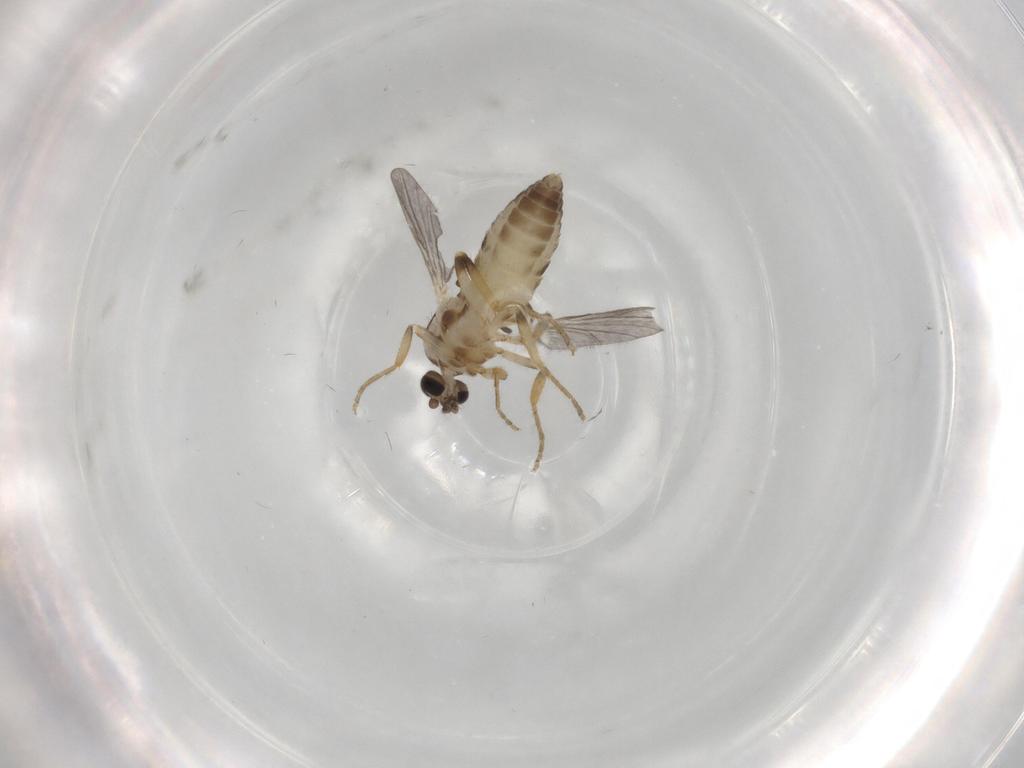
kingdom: Animalia
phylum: Arthropoda
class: Insecta
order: Diptera
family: Ceratopogonidae
